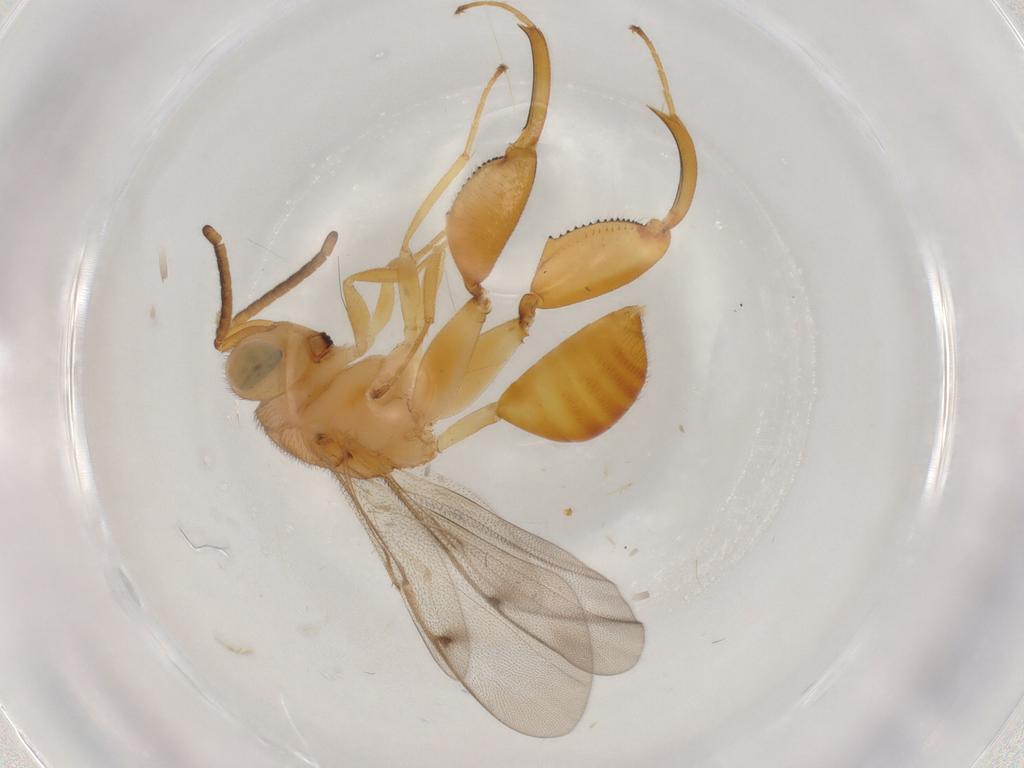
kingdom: Animalia
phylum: Arthropoda
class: Insecta
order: Hymenoptera
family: Chalcididae
